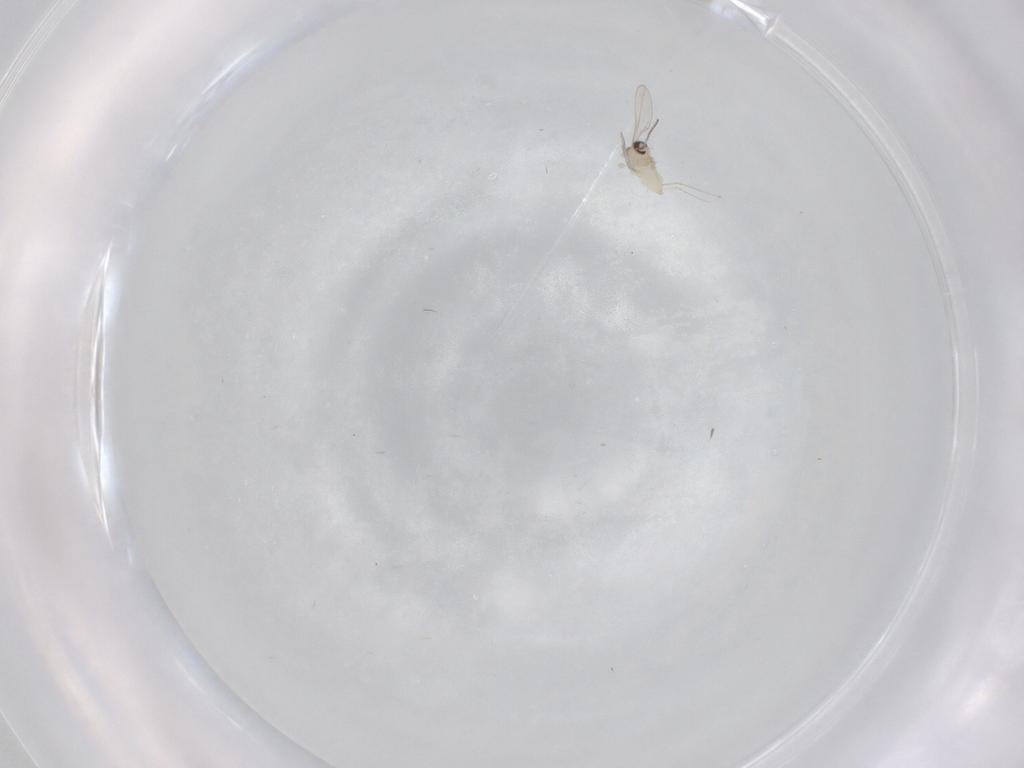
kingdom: Animalia
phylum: Arthropoda
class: Insecta
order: Diptera
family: Cecidomyiidae
